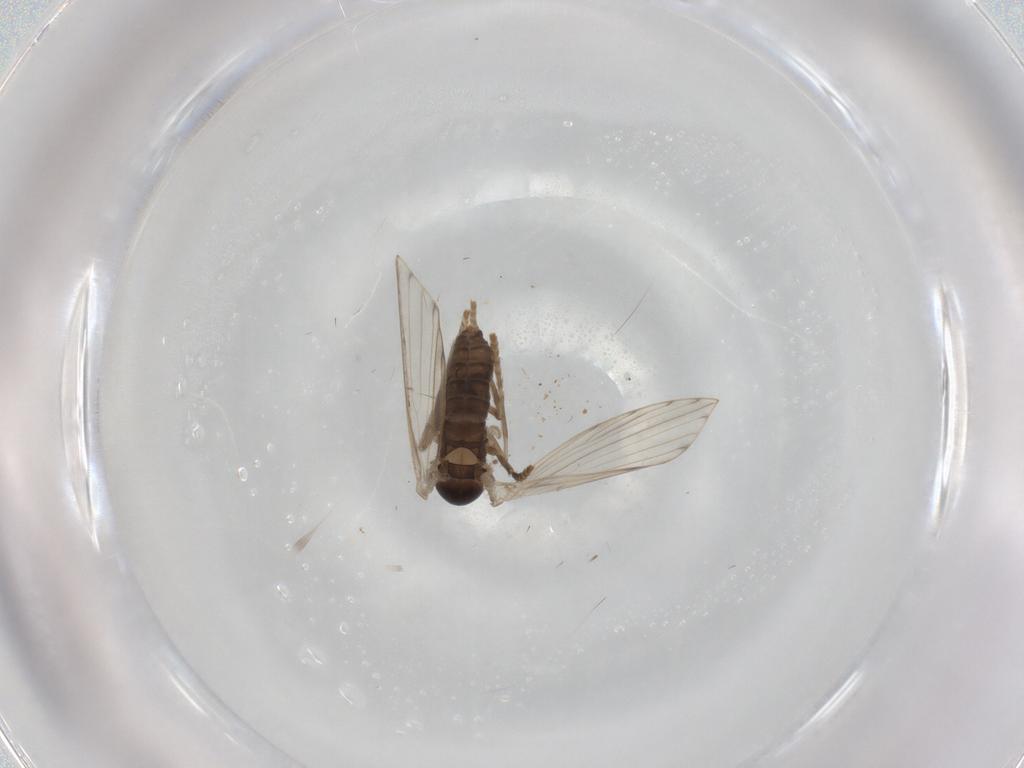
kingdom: Animalia
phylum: Arthropoda
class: Insecta
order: Diptera
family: Psychodidae
